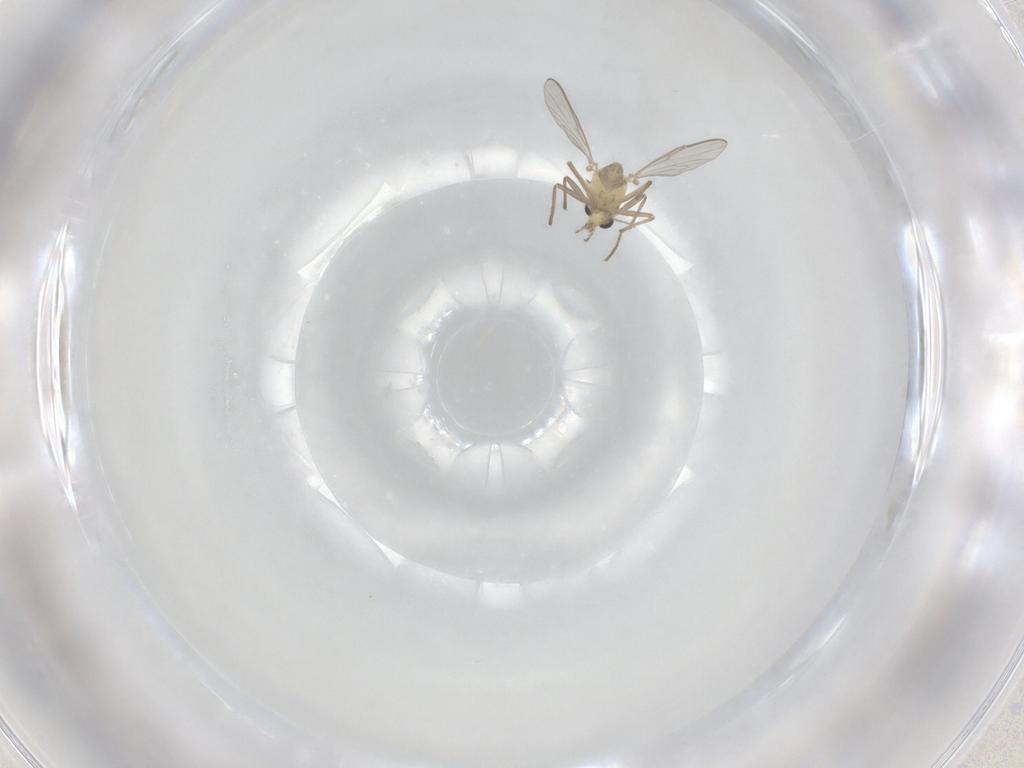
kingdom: Animalia
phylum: Arthropoda
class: Insecta
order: Diptera
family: Chironomidae
